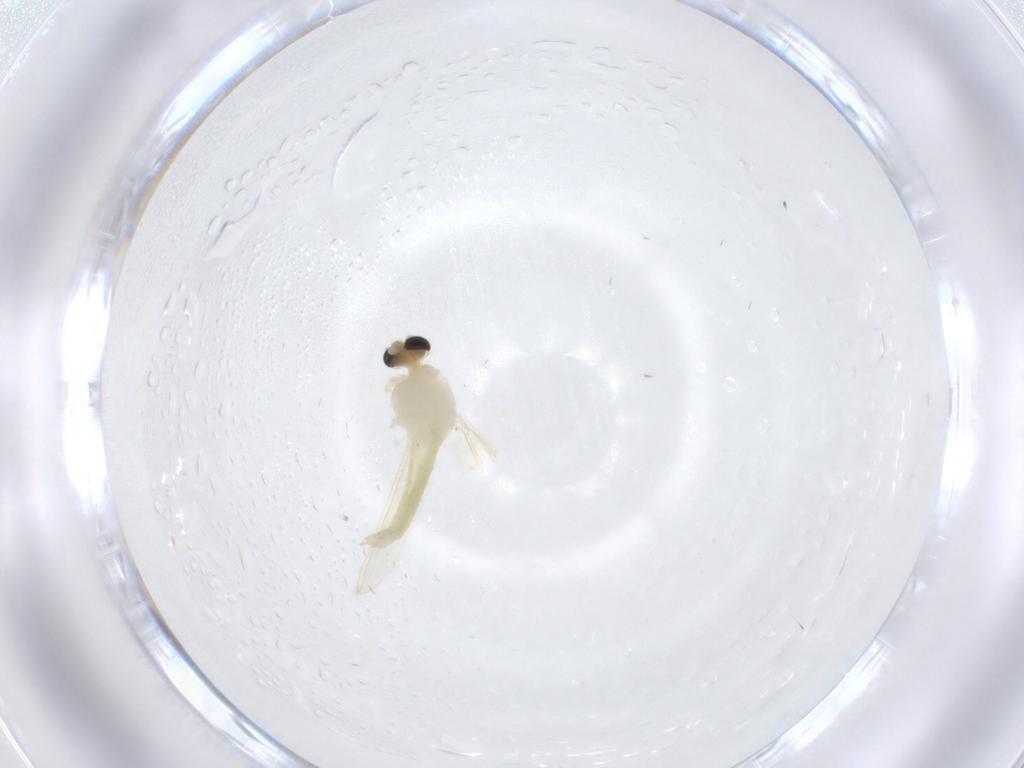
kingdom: Animalia
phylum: Arthropoda
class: Insecta
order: Diptera
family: Chironomidae
